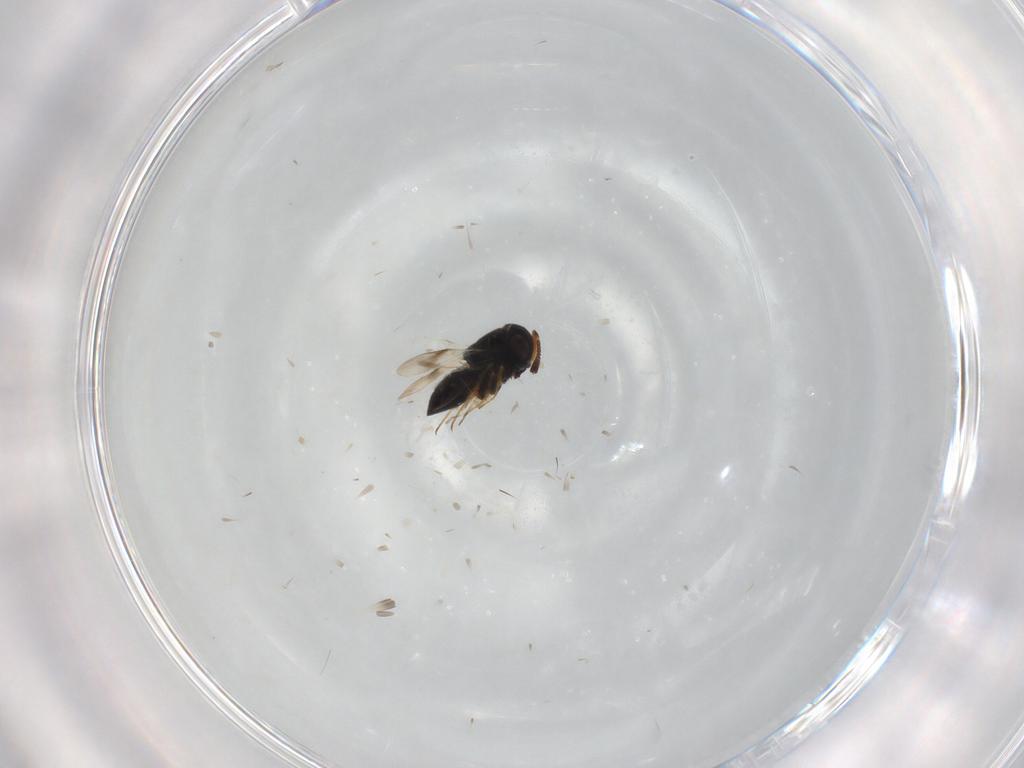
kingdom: Animalia
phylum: Arthropoda
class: Insecta
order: Hymenoptera
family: Scelionidae
